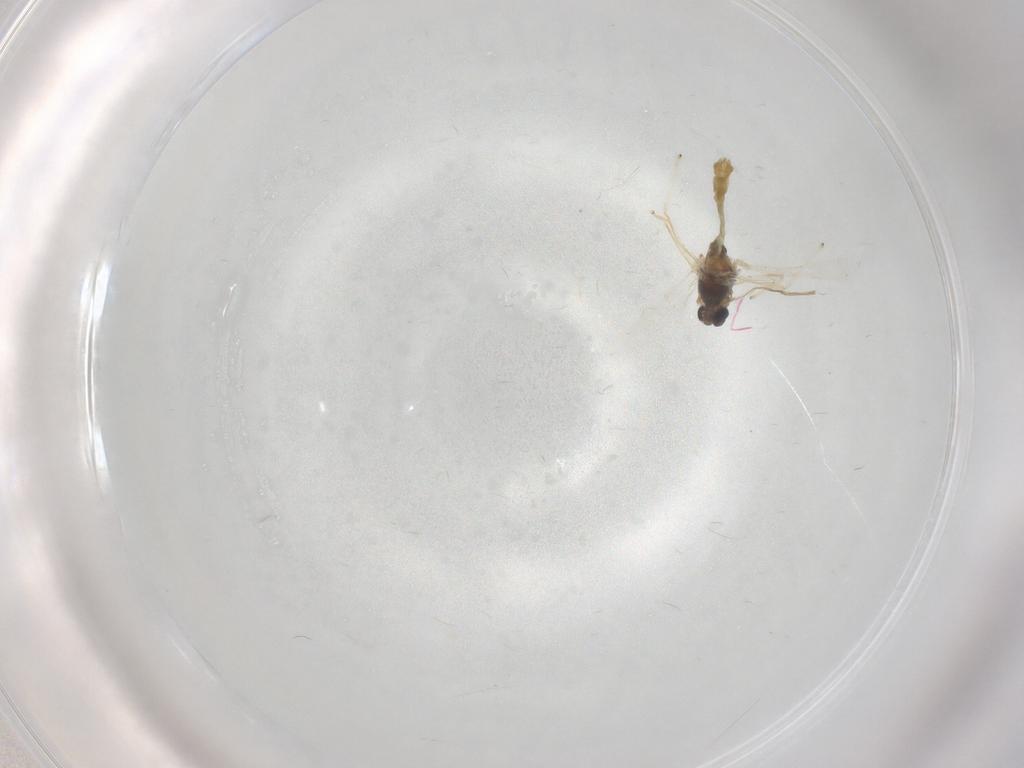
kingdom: Animalia
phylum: Arthropoda
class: Insecta
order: Diptera
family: Chironomidae
